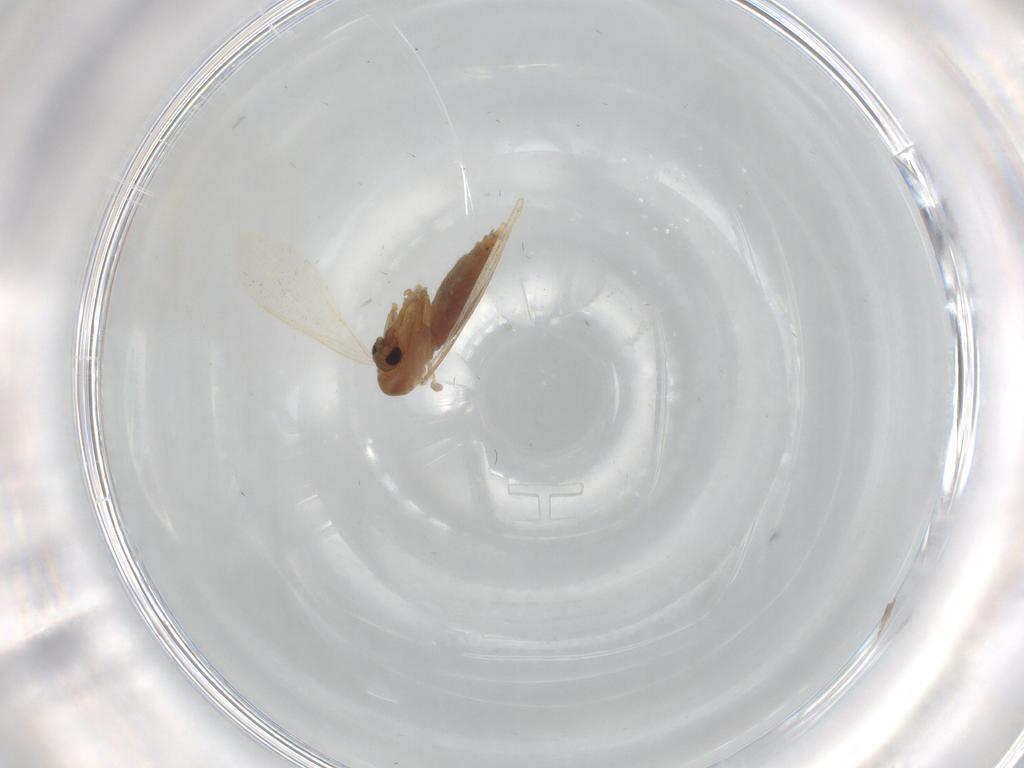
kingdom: Animalia
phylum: Arthropoda
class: Insecta
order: Diptera
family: Psychodidae
